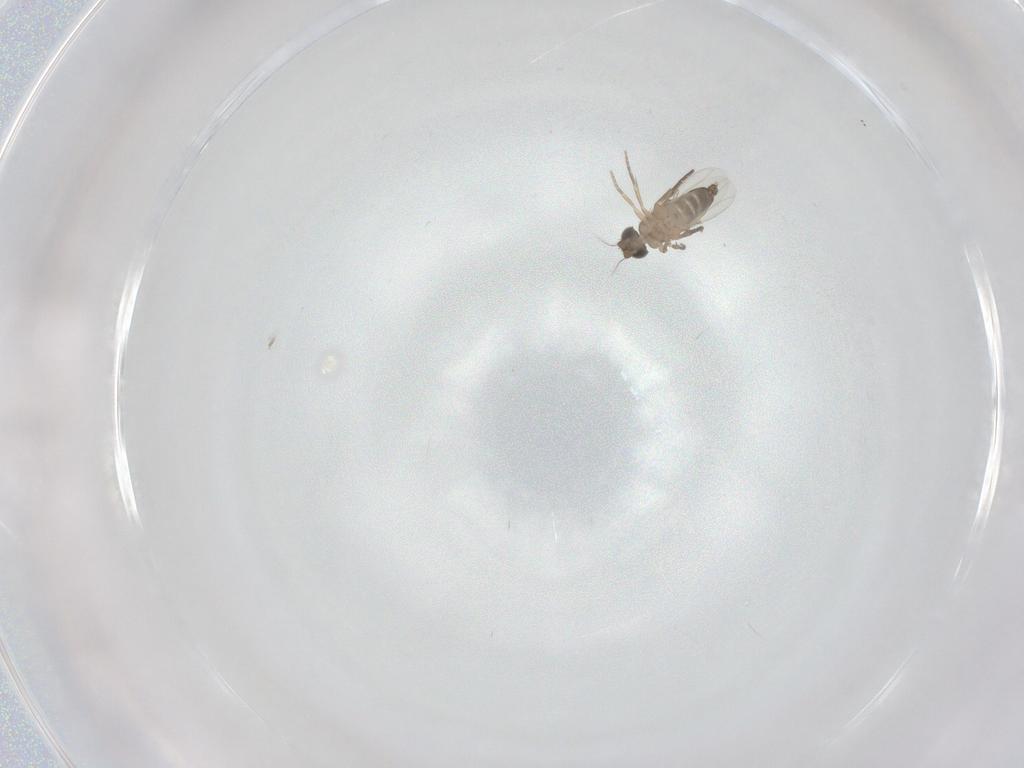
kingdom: Animalia
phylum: Arthropoda
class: Insecta
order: Diptera
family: Phoridae
